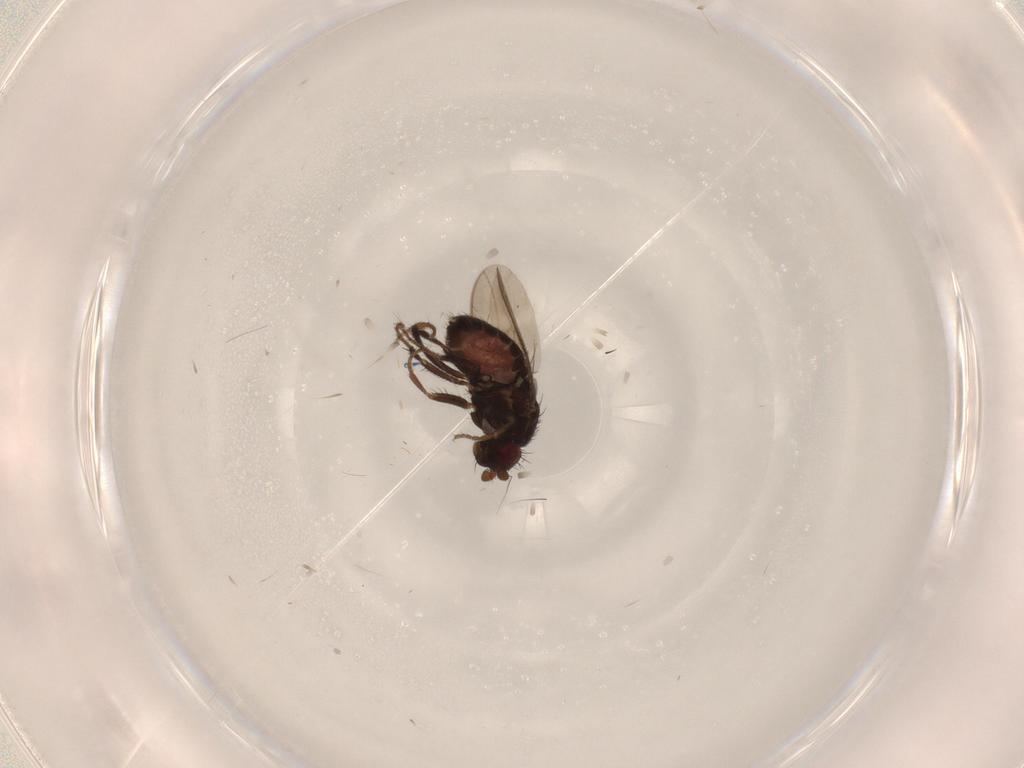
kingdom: Animalia
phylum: Arthropoda
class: Insecta
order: Diptera
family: Sphaeroceridae
